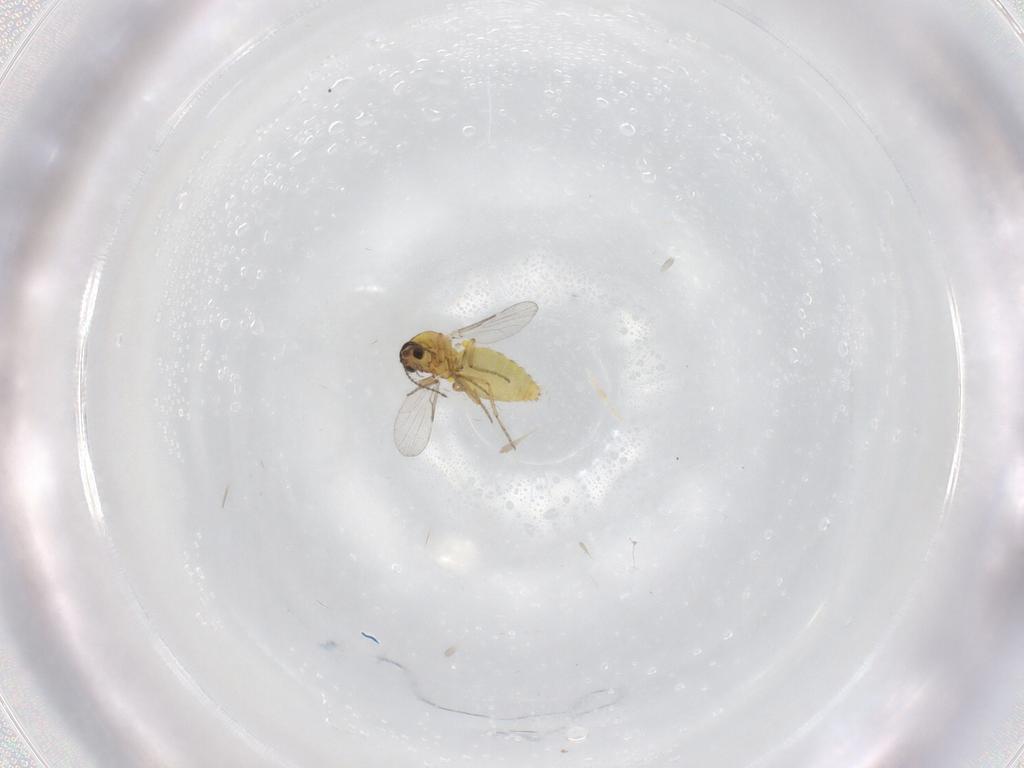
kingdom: Animalia
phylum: Arthropoda
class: Insecta
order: Diptera
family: Ceratopogonidae
